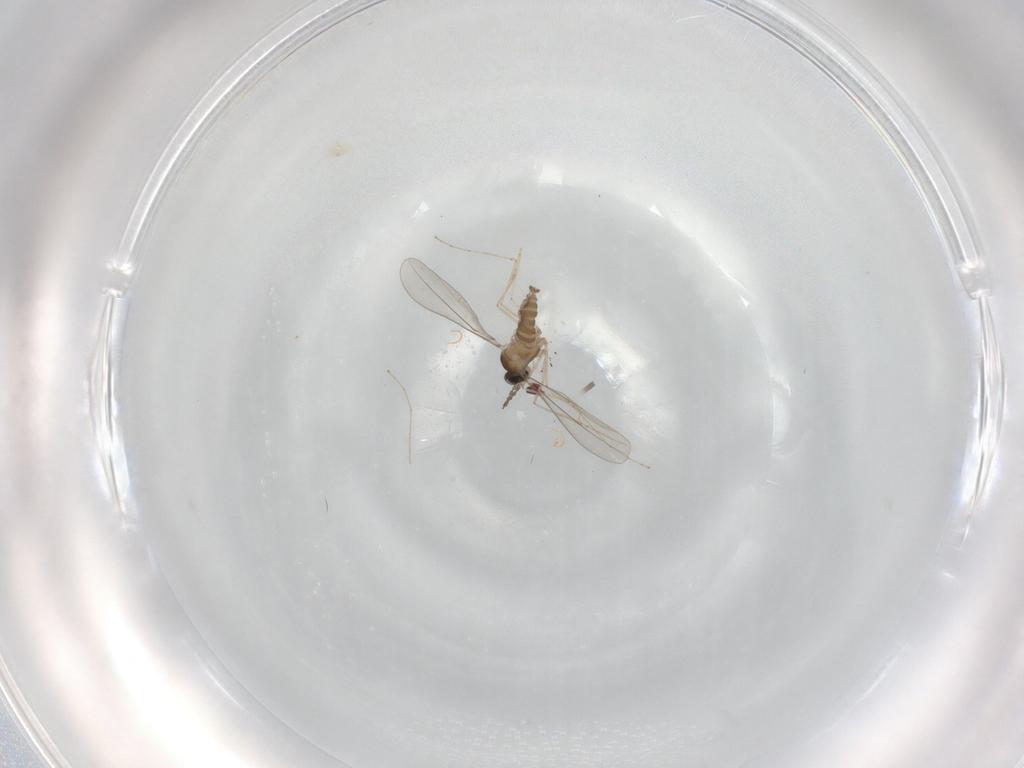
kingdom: Animalia
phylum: Arthropoda
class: Insecta
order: Diptera
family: Cecidomyiidae
